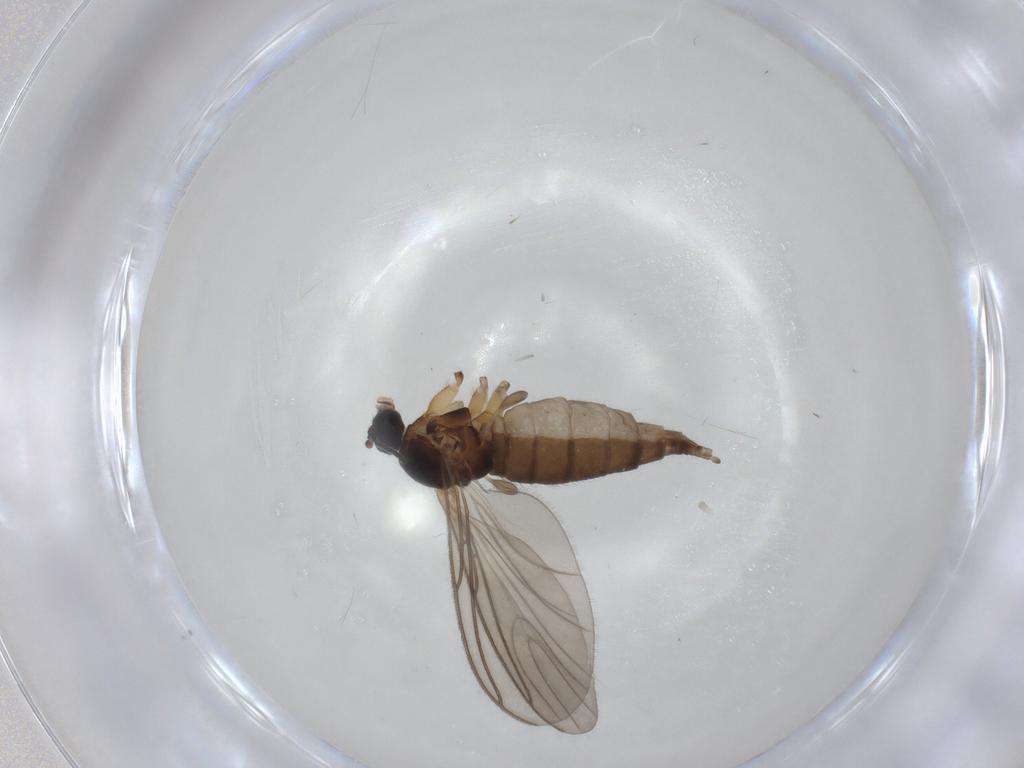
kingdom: Animalia
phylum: Arthropoda
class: Insecta
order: Diptera
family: Sciaridae
